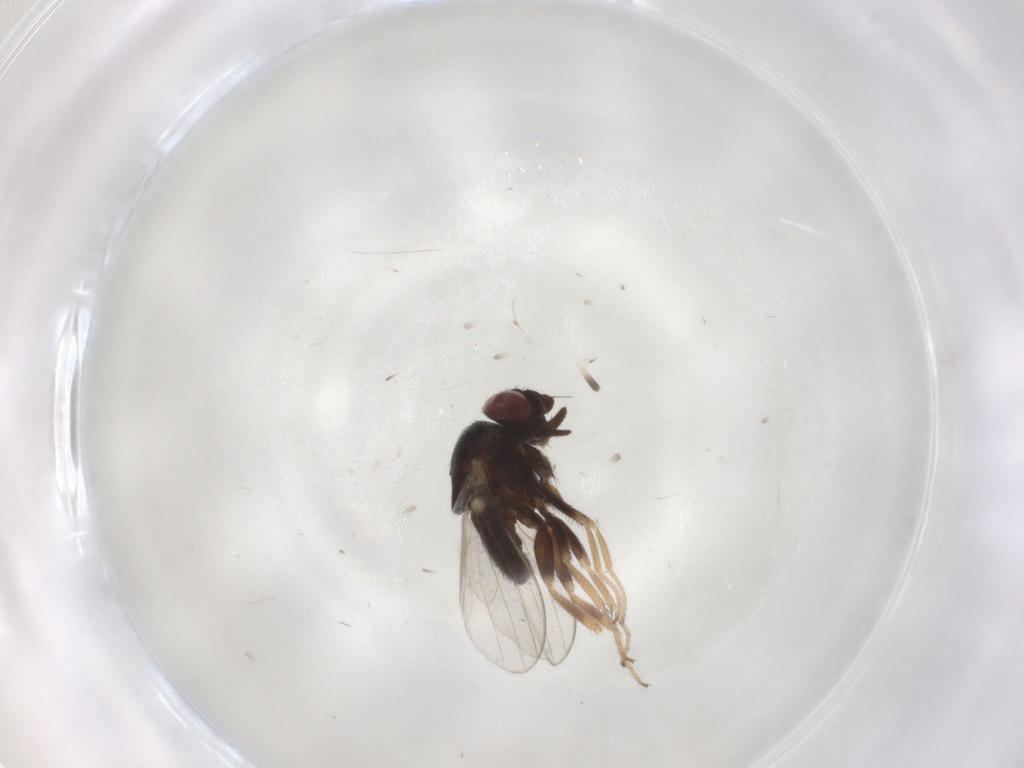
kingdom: Animalia
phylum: Arthropoda
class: Insecta
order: Diptera
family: Milichiidae
